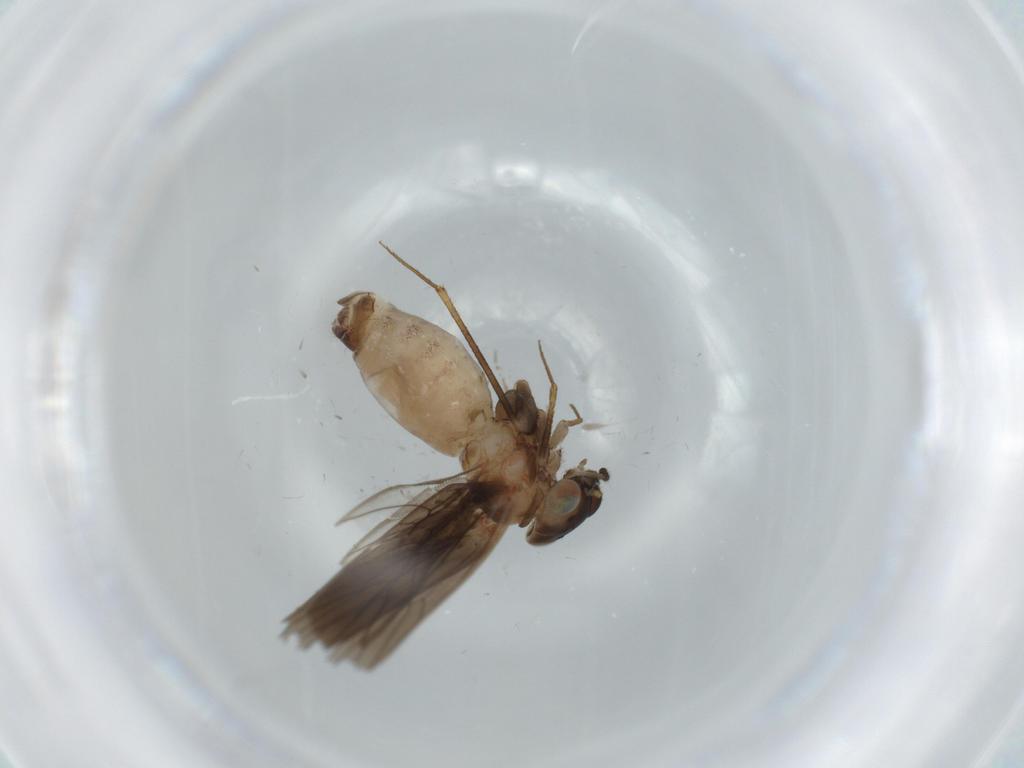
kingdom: Animalia
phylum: Arthropoda
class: Insecta
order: Psocodea
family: Lepidopsocidae
